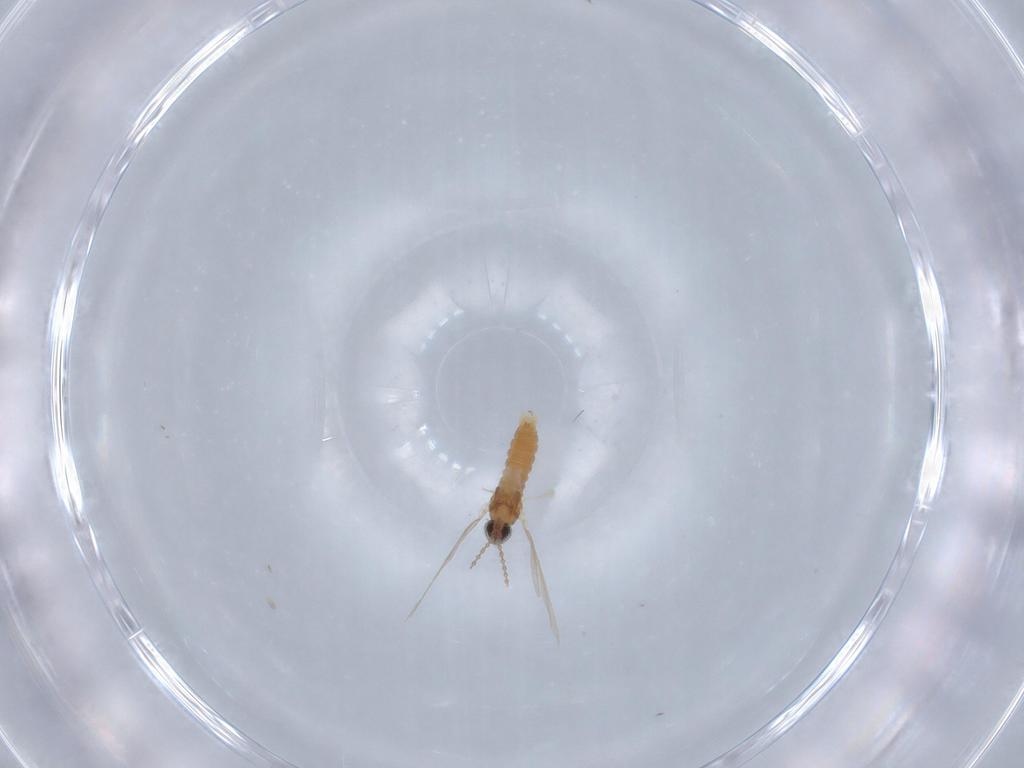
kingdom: Animalia
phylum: Arthropoda
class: Insecta
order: Diptera
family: Cecidomyiidae
